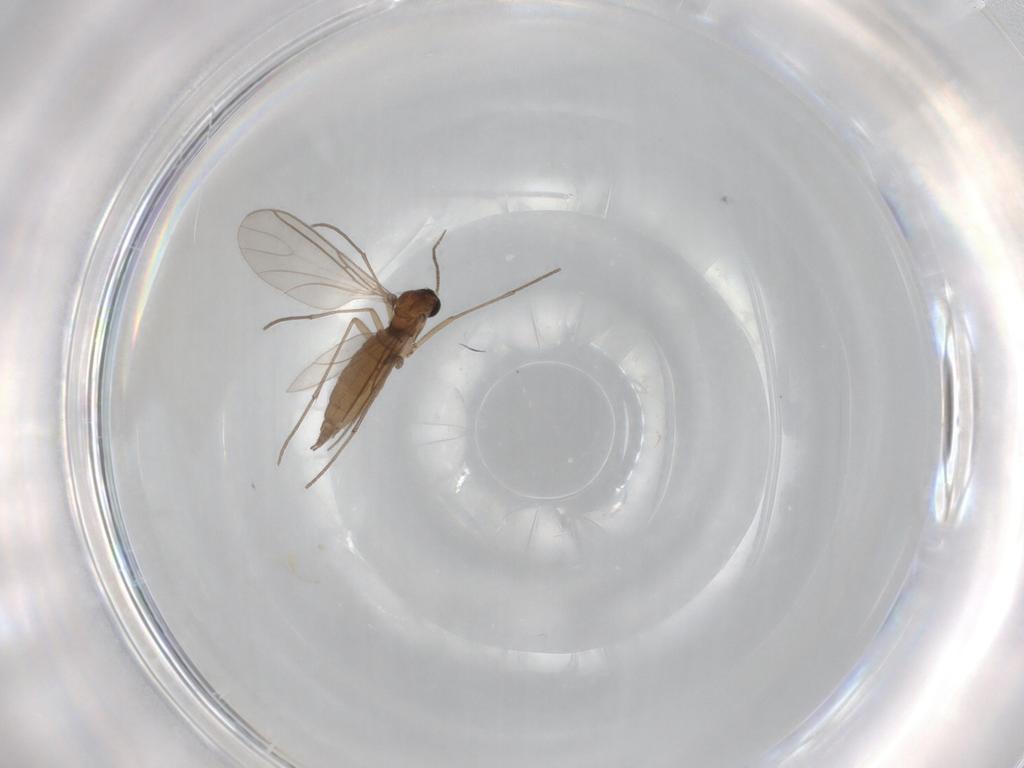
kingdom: Animalia
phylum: Arthropoda
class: Insecta
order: Diptera
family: Sciaridae
